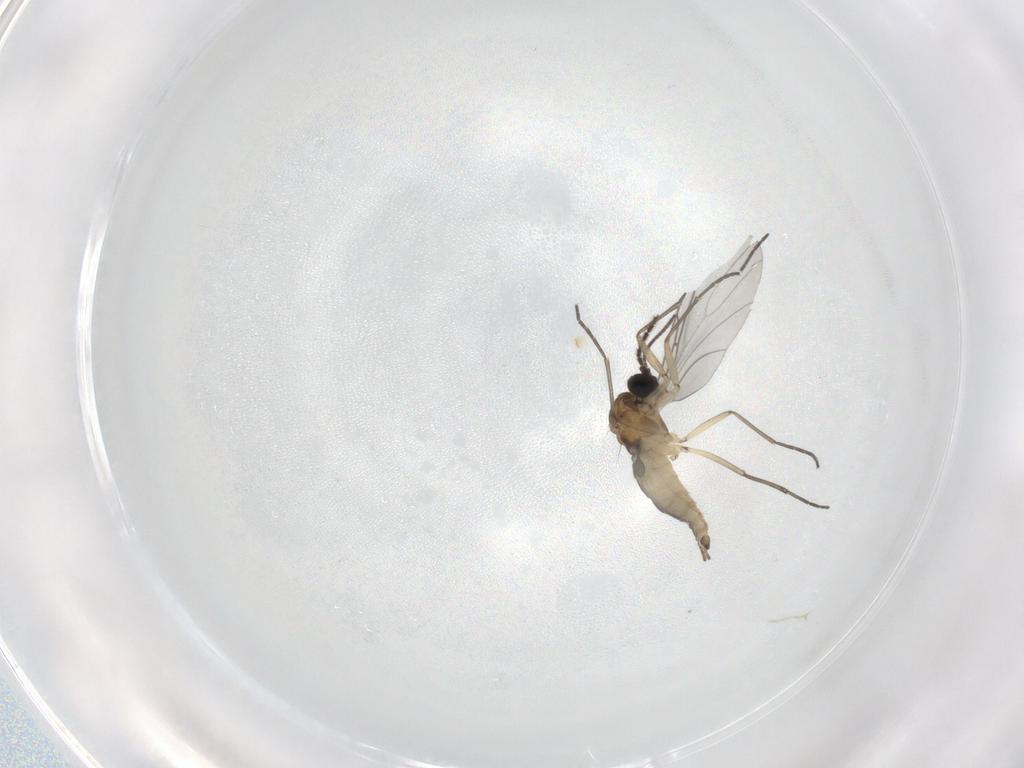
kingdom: Animalia
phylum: Arthropoda
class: Insecta
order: Diptera
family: Sciaridae
